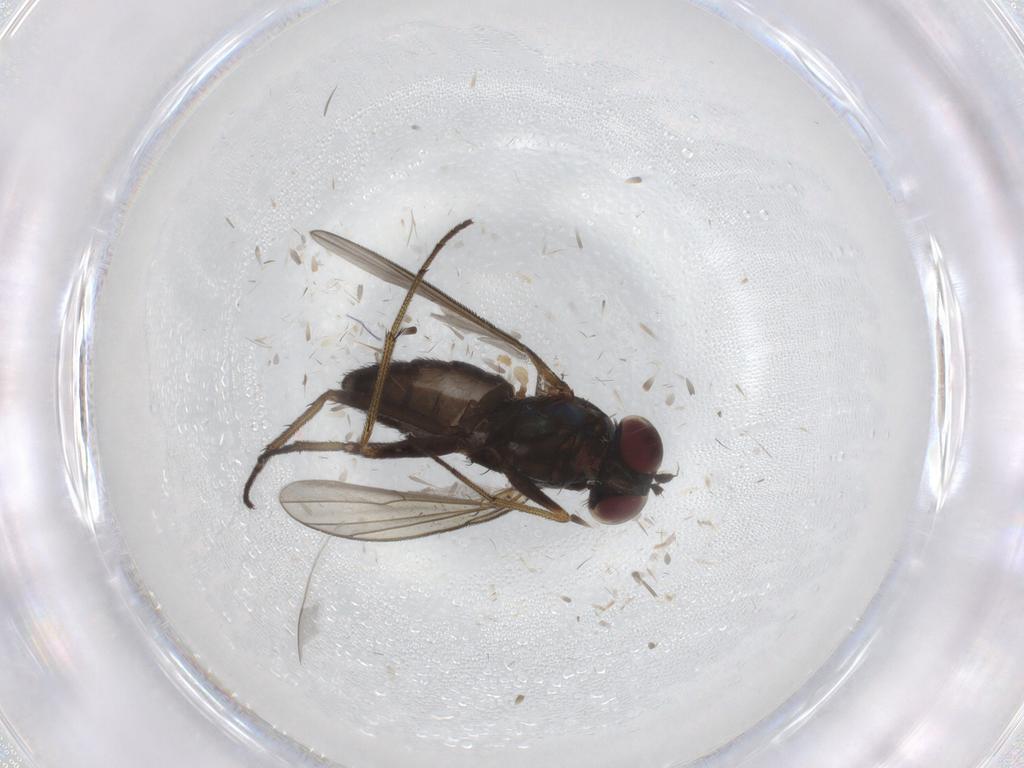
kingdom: Animalia
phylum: Arthropoda
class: Insecta
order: Diptera
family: Dolichopodidae
